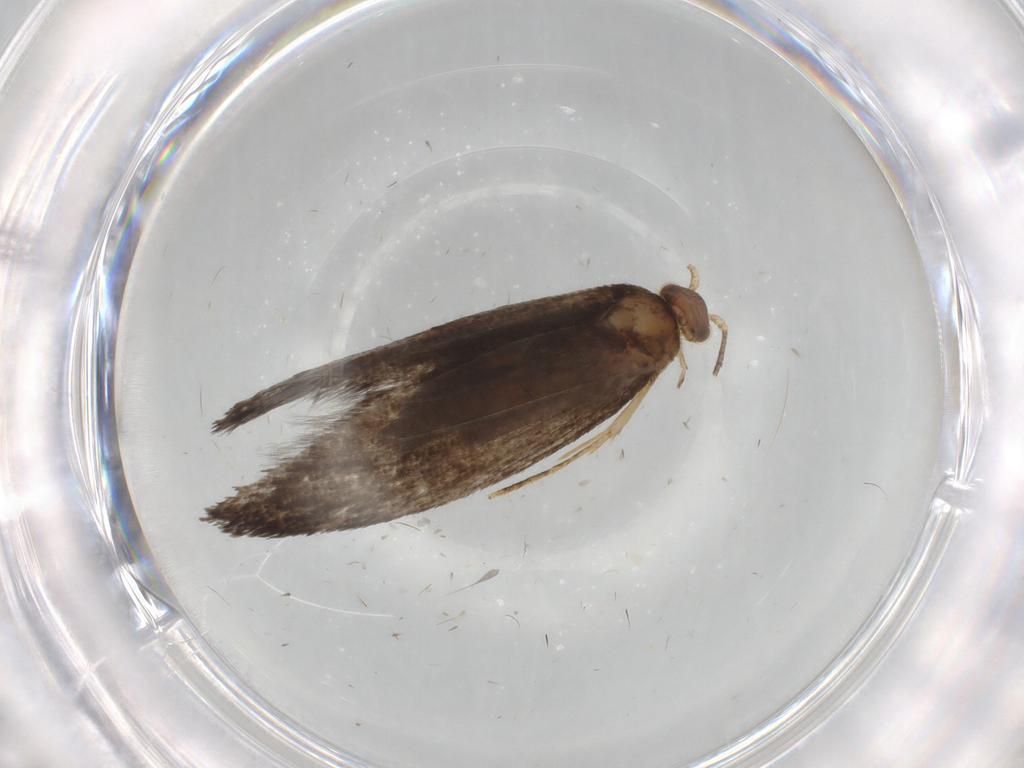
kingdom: Animalia
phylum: Arthropoda
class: Insecta
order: Lepidoptera
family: Tineidae
